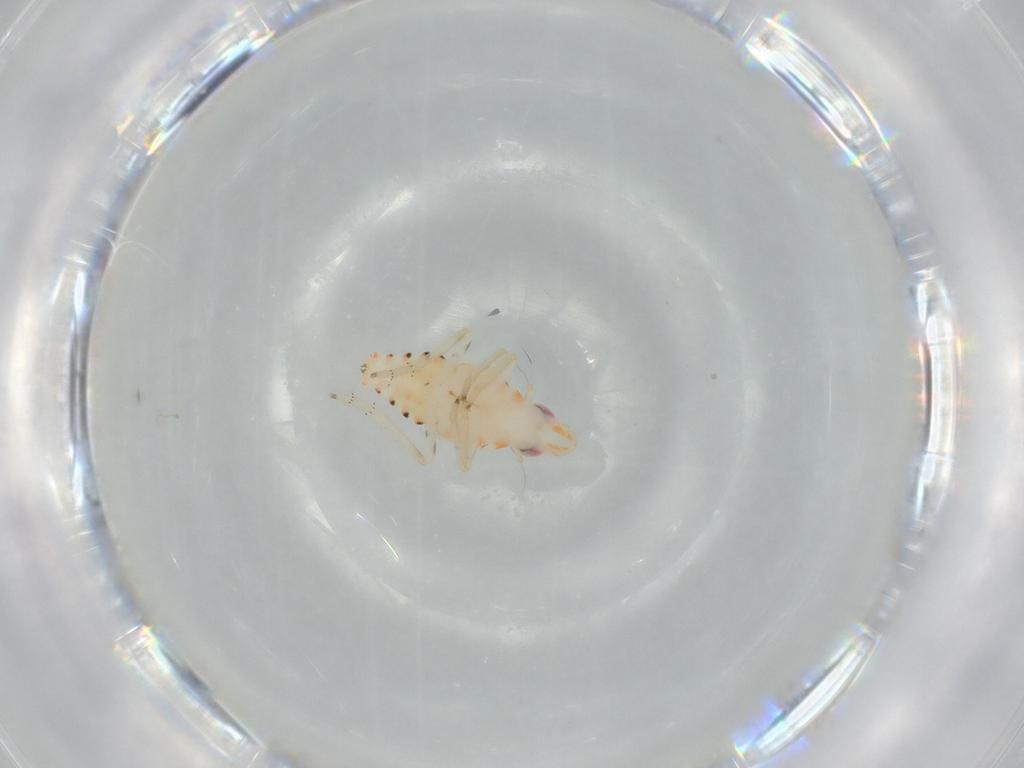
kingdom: Animalia
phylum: Arthropoda
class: Insecta
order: Hemiptera
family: Tropiduchidae
